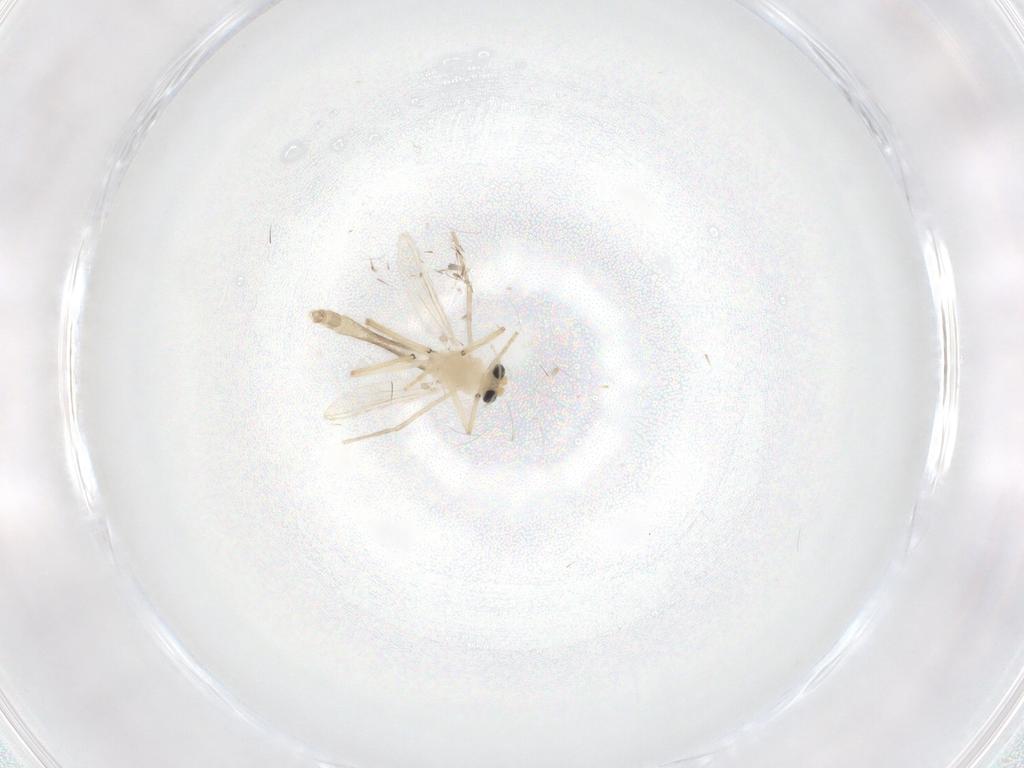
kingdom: Animalia
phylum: Arthropoda
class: Insecta
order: Diptera
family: Chironomidae
